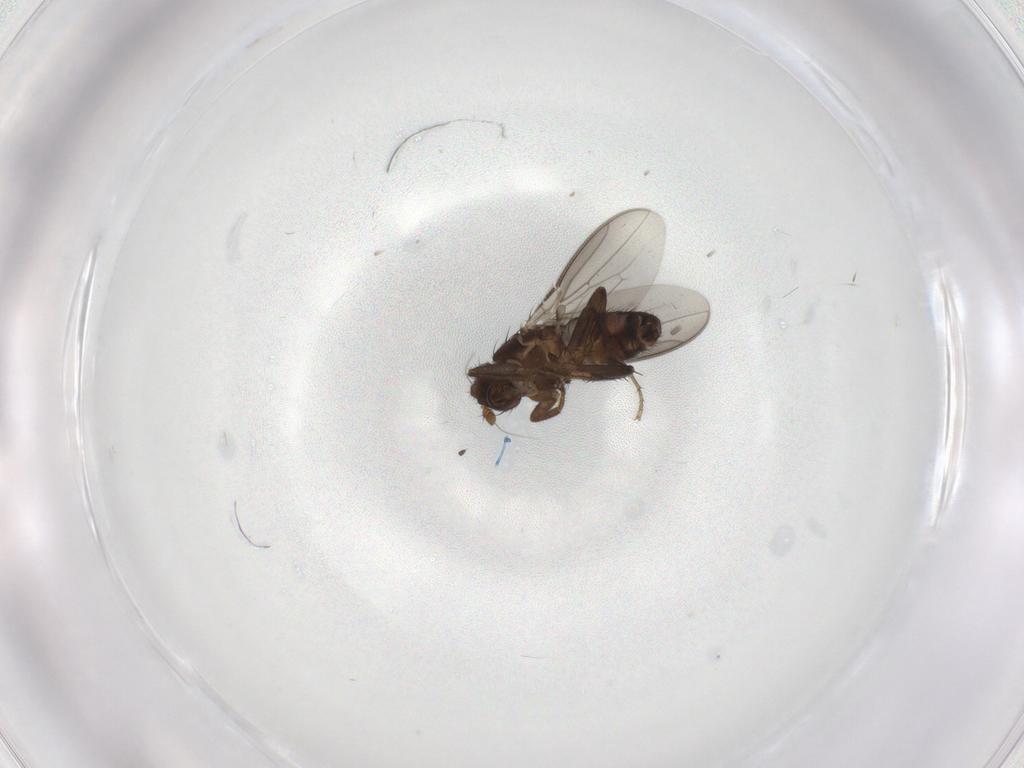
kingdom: Animalia
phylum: Arthropoda
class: Insecta
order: Diptera
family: Sphaeroceridae
